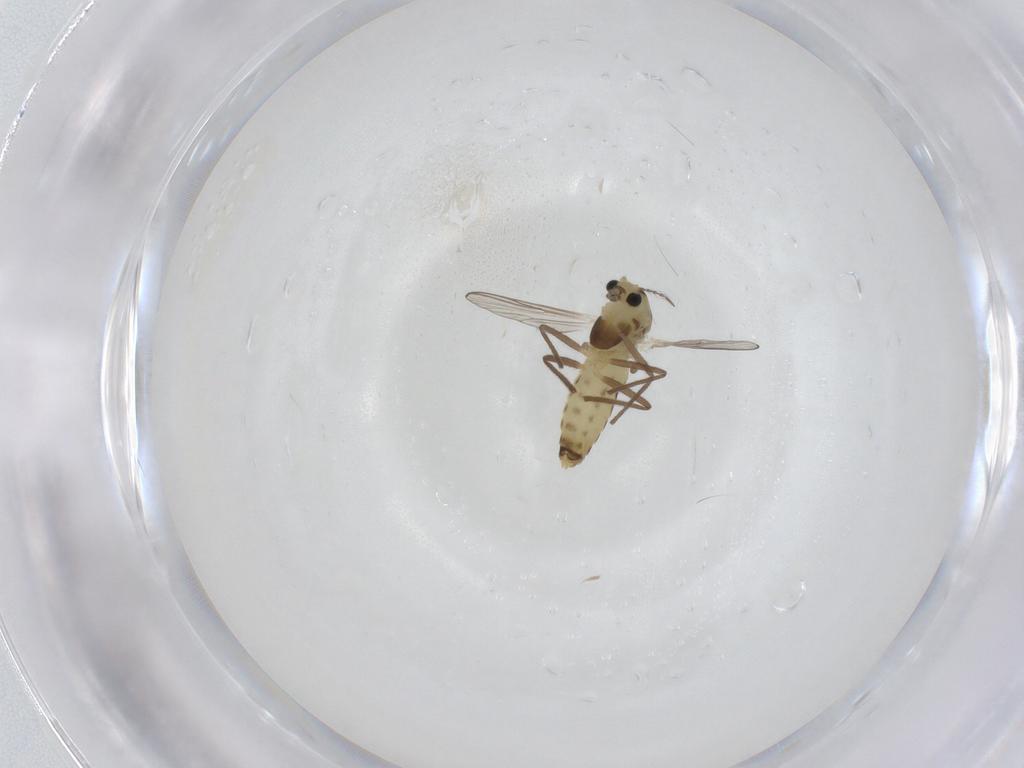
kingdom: Animalia
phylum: Arthropoda
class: Insecta
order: Diptera
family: Chironomidae
